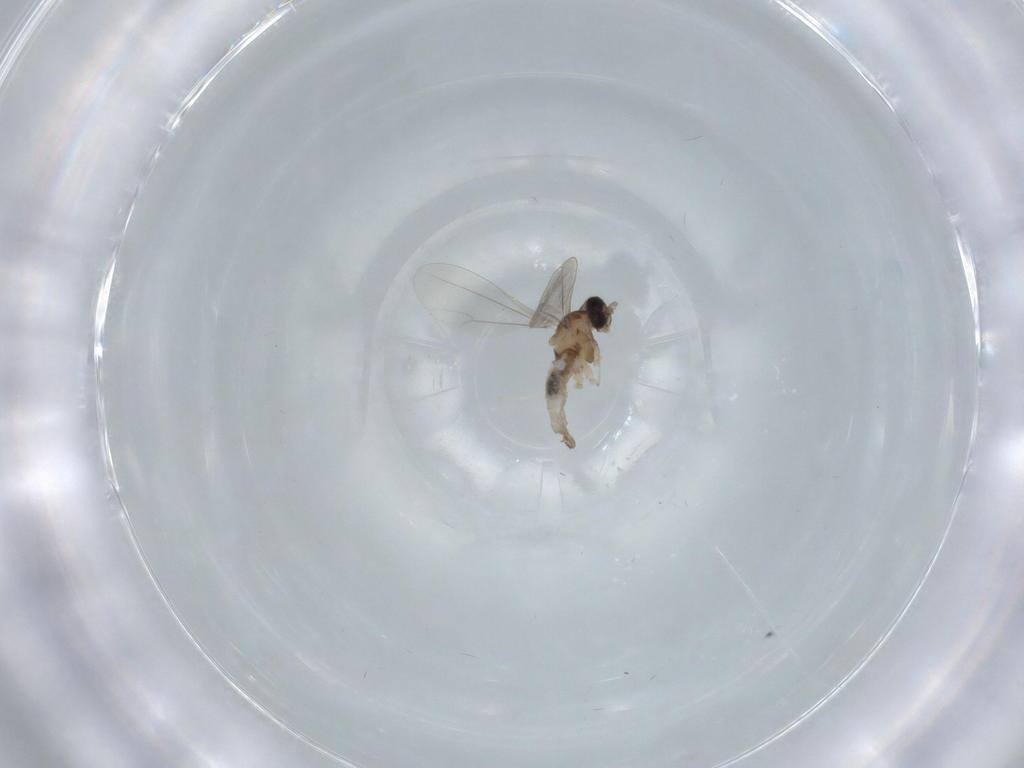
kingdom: Animalia
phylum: Arthropoda
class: Insecta
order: Diptera
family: Cecidomyiidae
